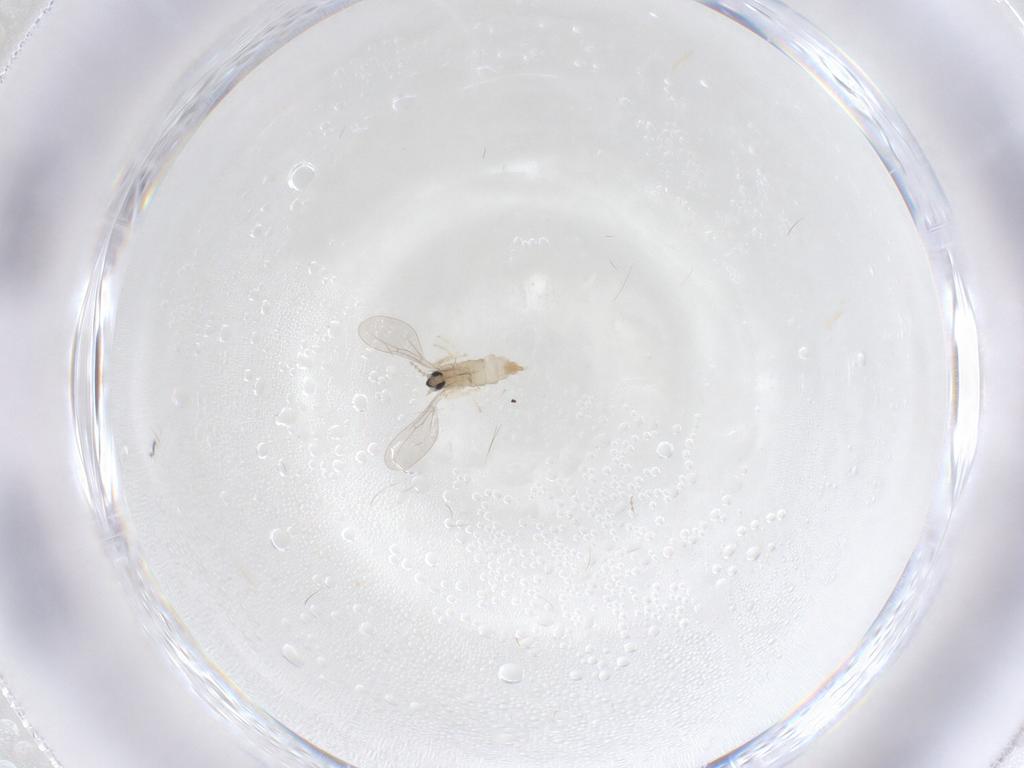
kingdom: Animalia
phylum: Arthropoda
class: Insecta
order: Diptera
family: Cecidomyiidae
